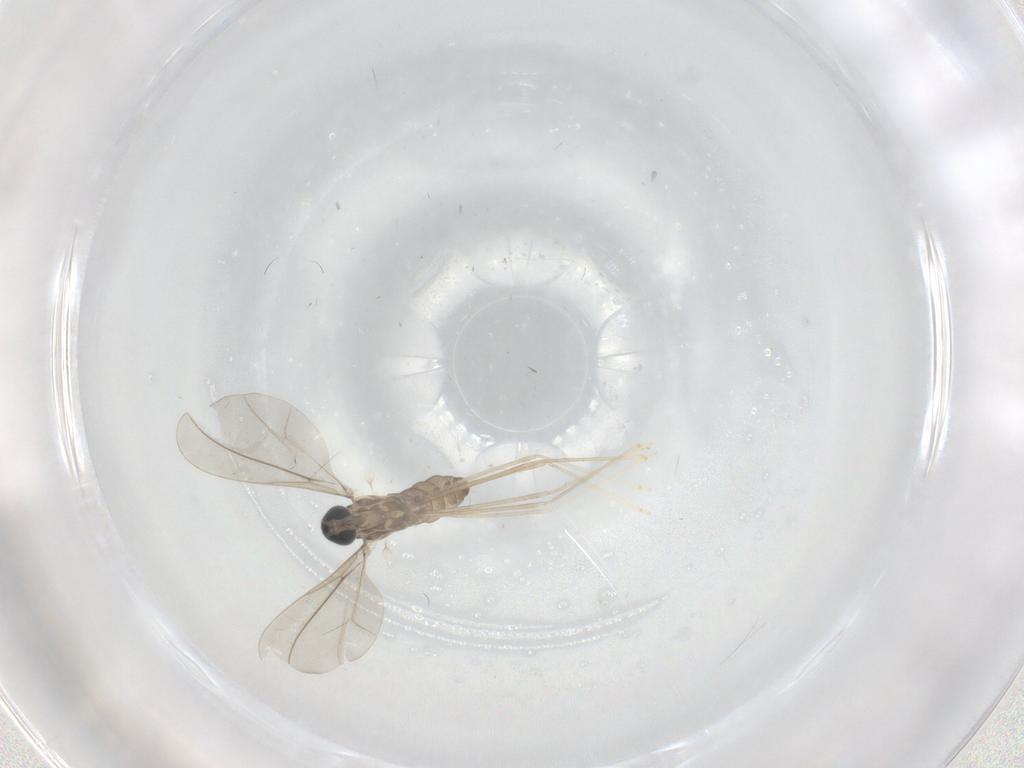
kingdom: Animalia
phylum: Arthropoda
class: Insecta
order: Diptera
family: Cecidomyiidae
